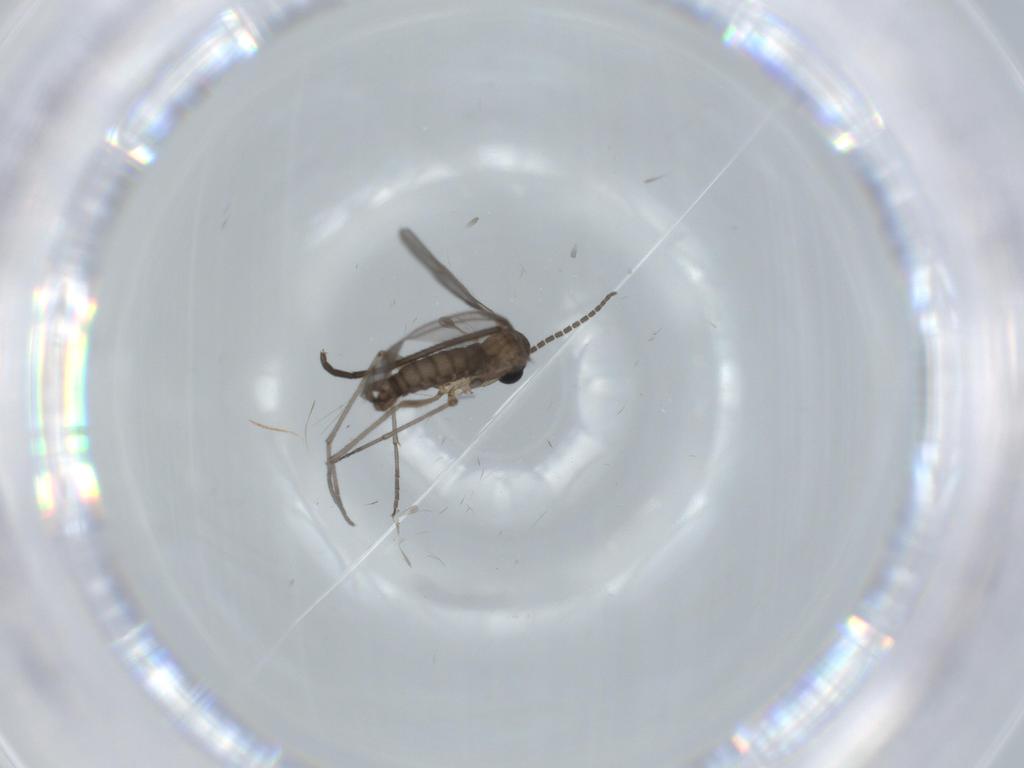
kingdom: Animalia
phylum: Arthropoda
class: Insecta
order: Diptera
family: Sciaridae
